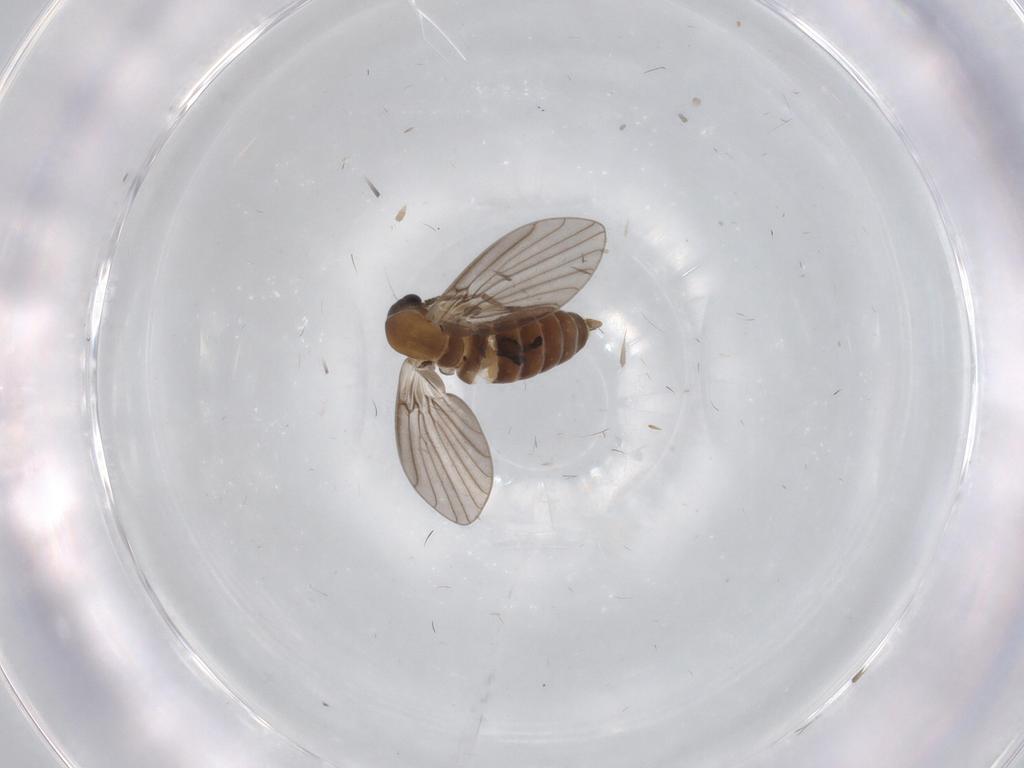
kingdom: Animalia
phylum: Arthropoda
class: Insecta
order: Diptera
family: Ditomyiidae
